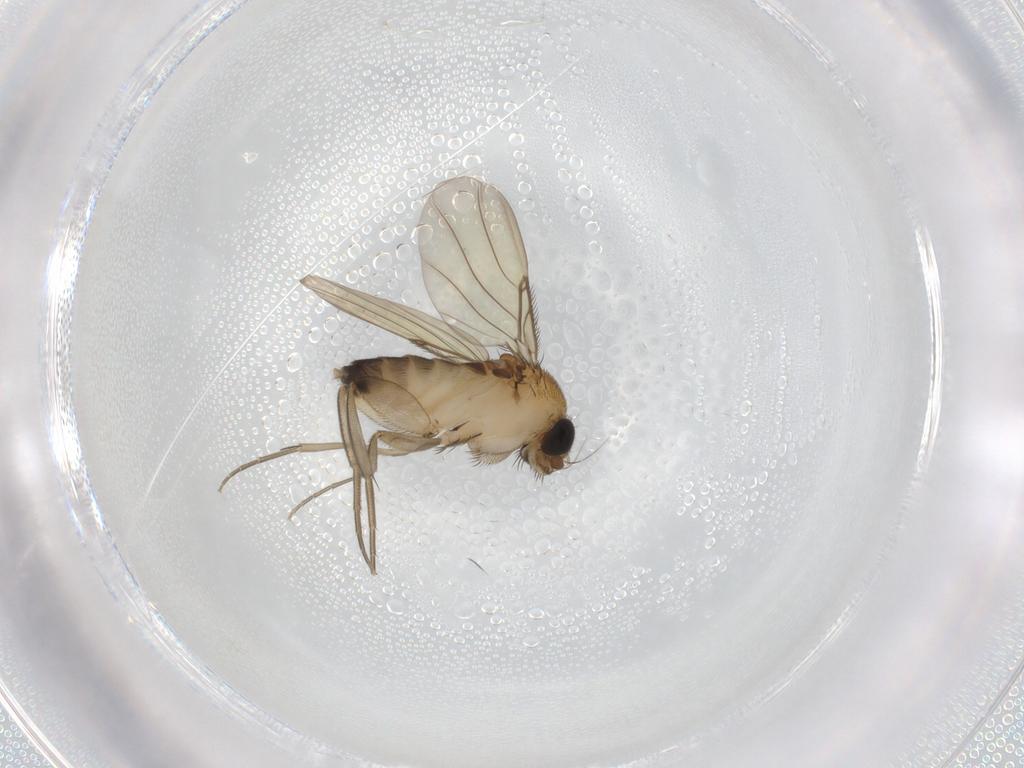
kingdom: Animalia
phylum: Arthropoda
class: Insecta
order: Diptera
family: Phoridae
